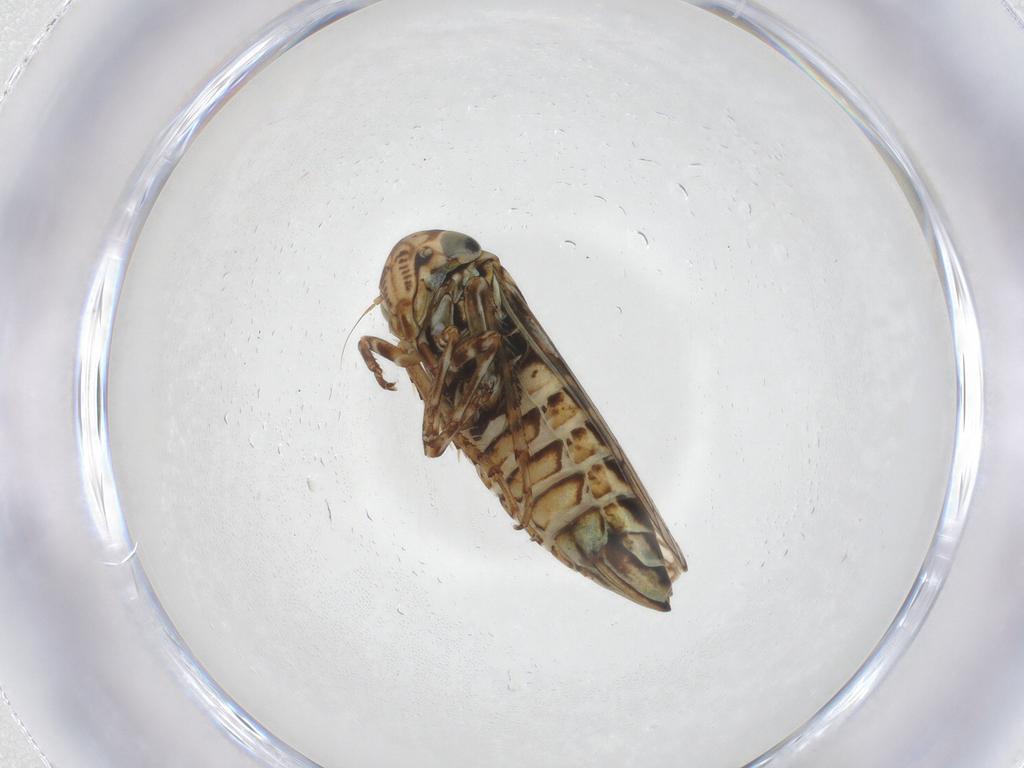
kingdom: Animalia
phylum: Arthropoda
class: Insecta
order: Hemiptera
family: Cicadellidae
